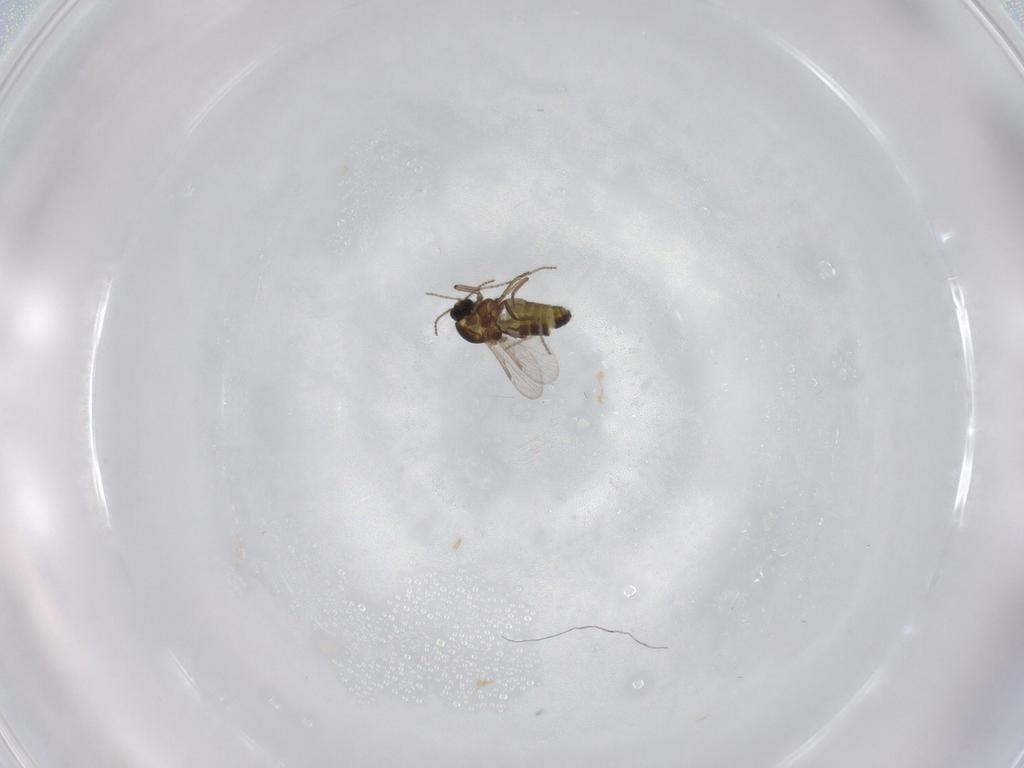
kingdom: Animalia
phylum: Arthropoda
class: Insecta
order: Diptera
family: Ceratopogonidae
